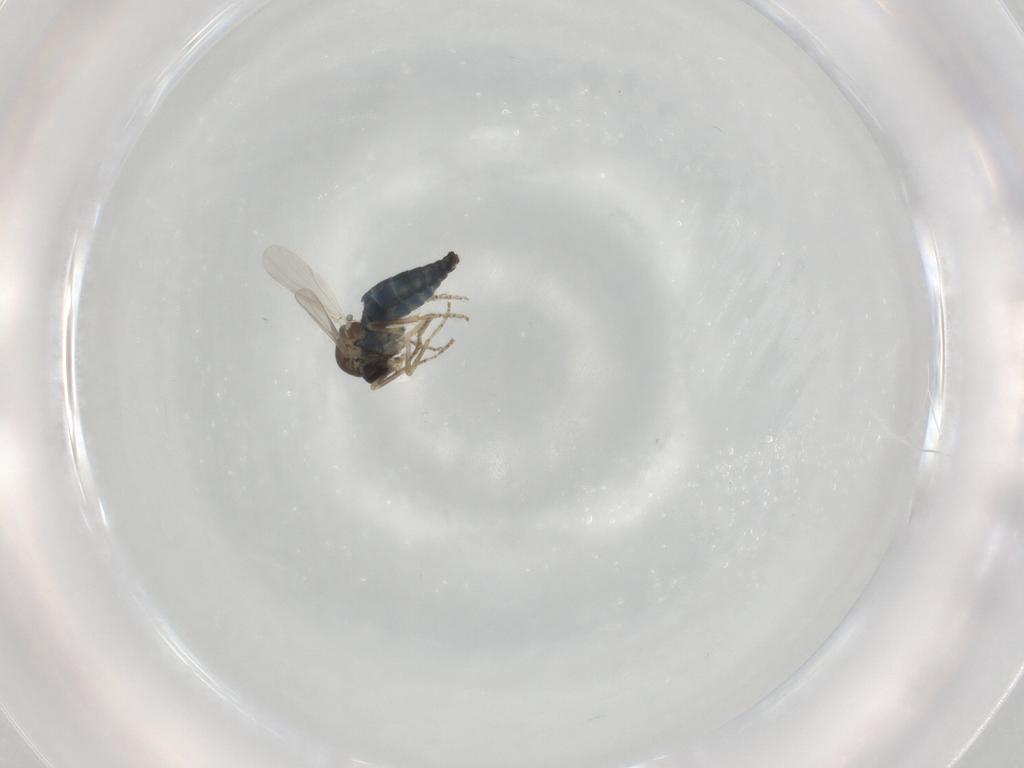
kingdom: Animalia
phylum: Arthropoda
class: Insecta
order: Diptera
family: Ceratopogonidae
